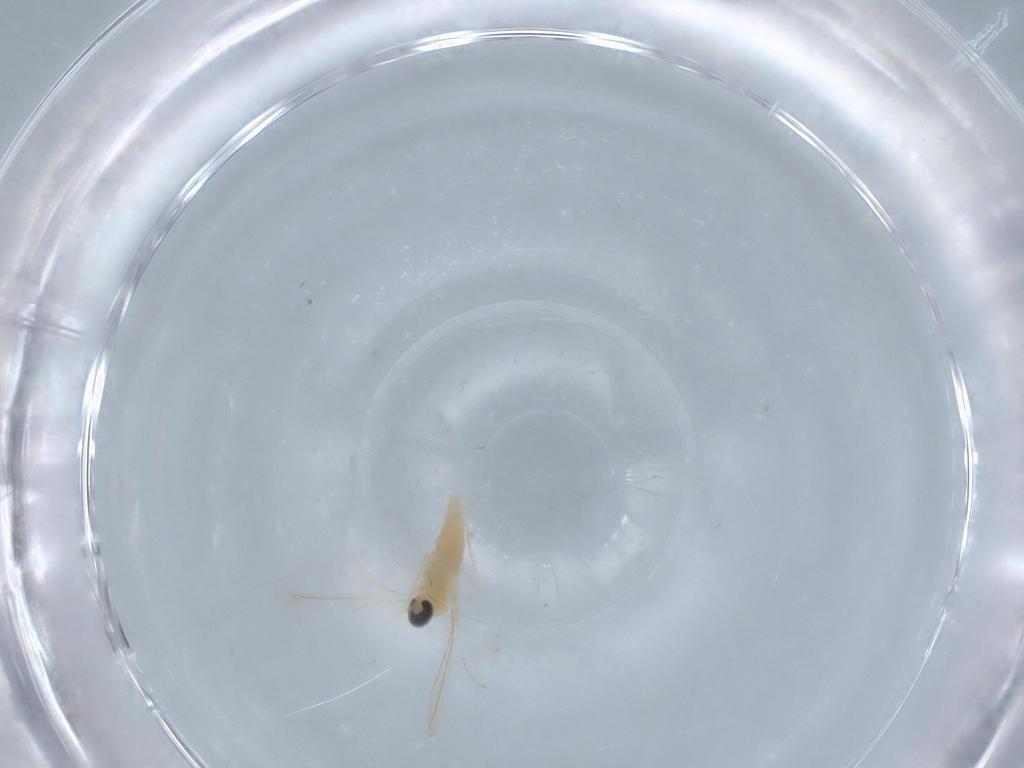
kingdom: Animalia
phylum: Arthropoda
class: Insecta
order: Diptera
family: Cecidomyiidae
